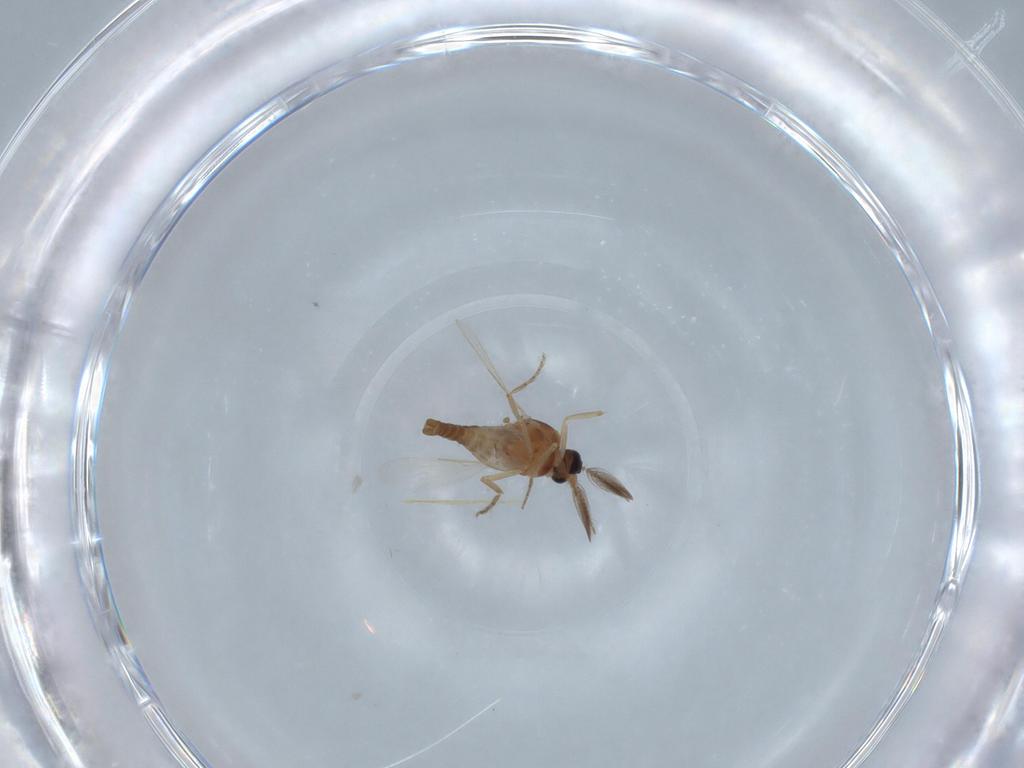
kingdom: Animalia
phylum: Arthropoda
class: Insecta
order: Diptera
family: Ceratopogonidae
